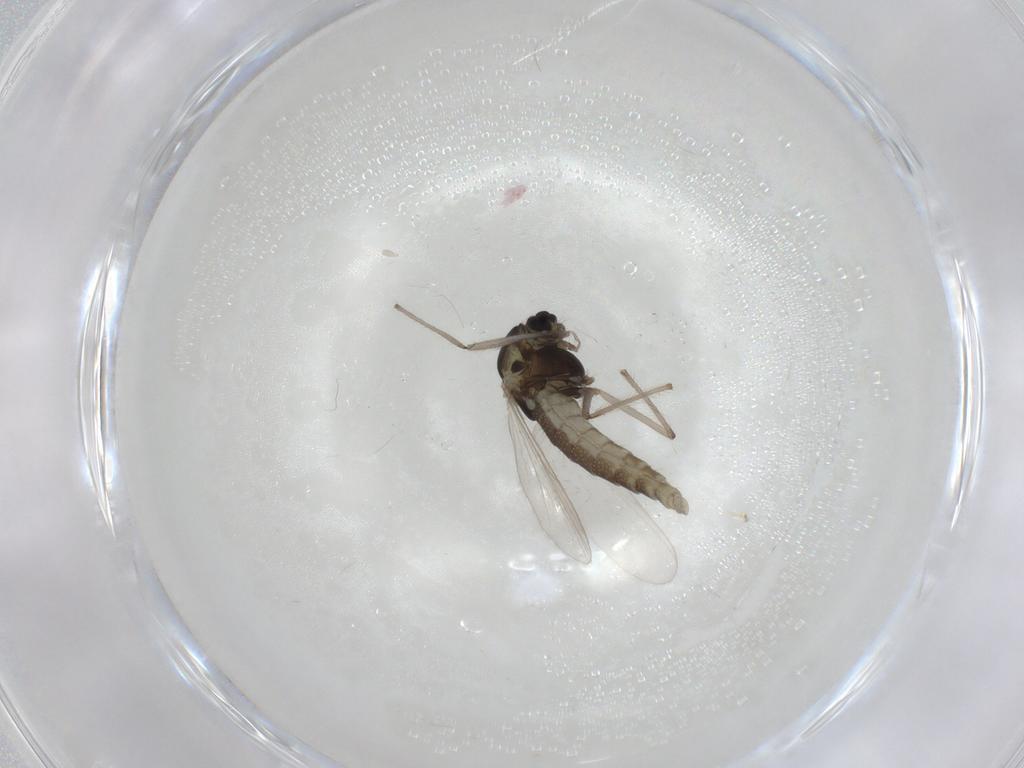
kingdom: Animalia
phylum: Arthropoda
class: Insecta
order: Diptera
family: Chironomidae
